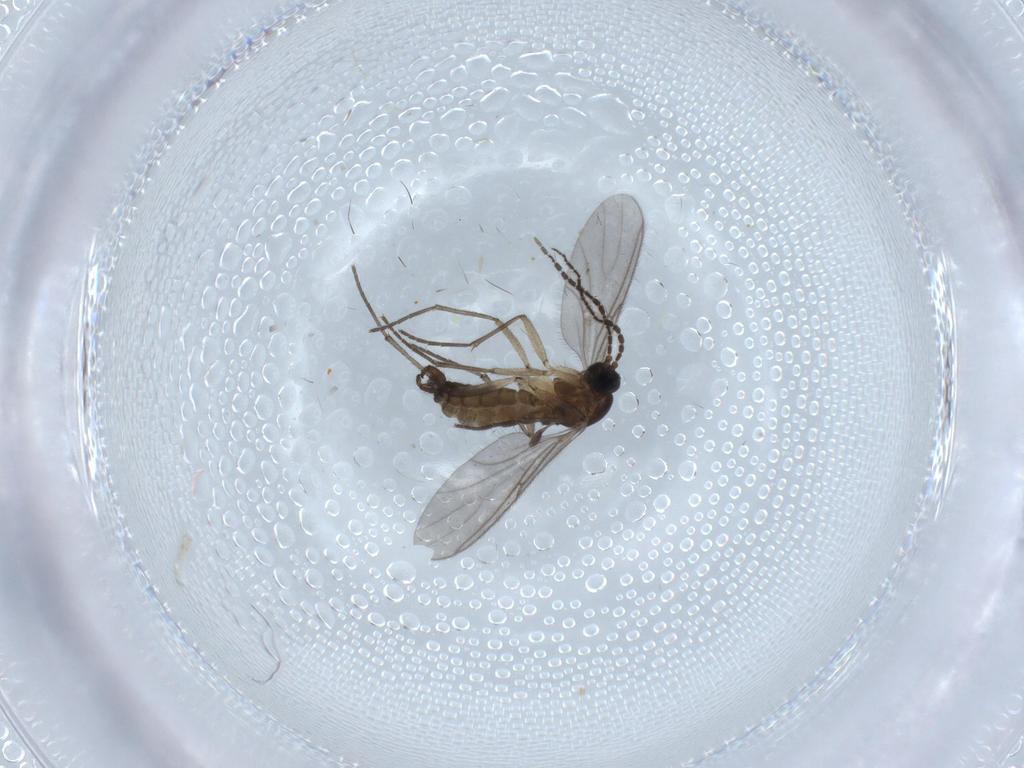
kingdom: Animalia
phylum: Arthropoda
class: Insecta
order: Diptera
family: Sciaridae
